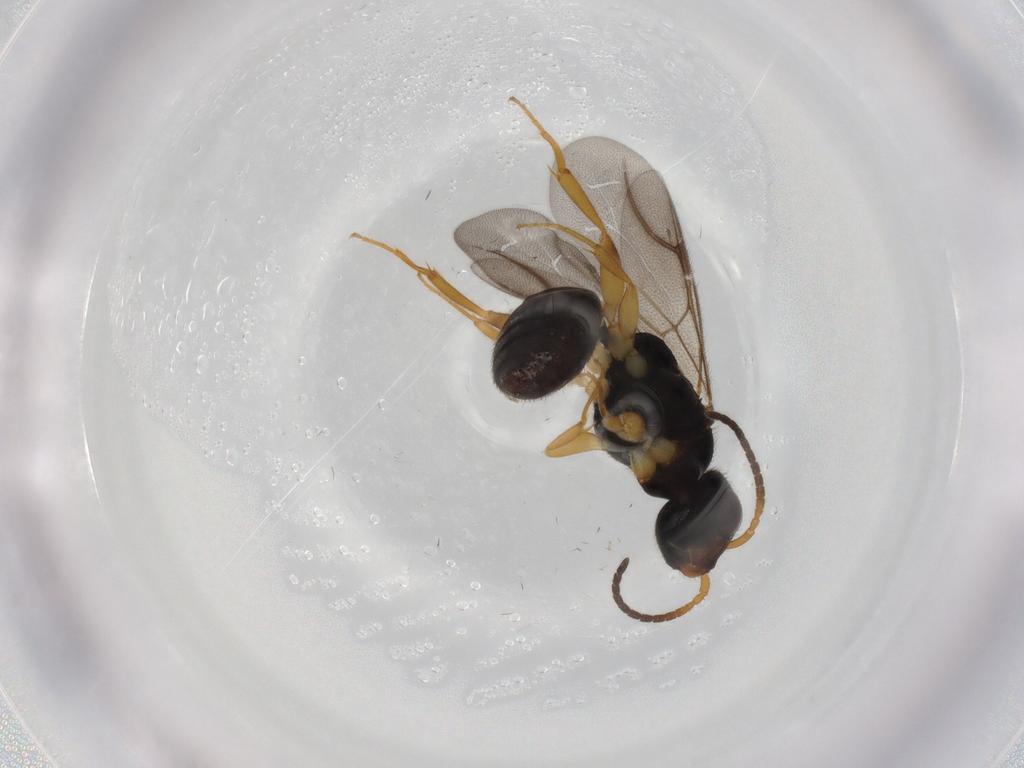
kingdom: Animalia
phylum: Arthropoda
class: Insecta
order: Hymenoptera
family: Bethylidae
